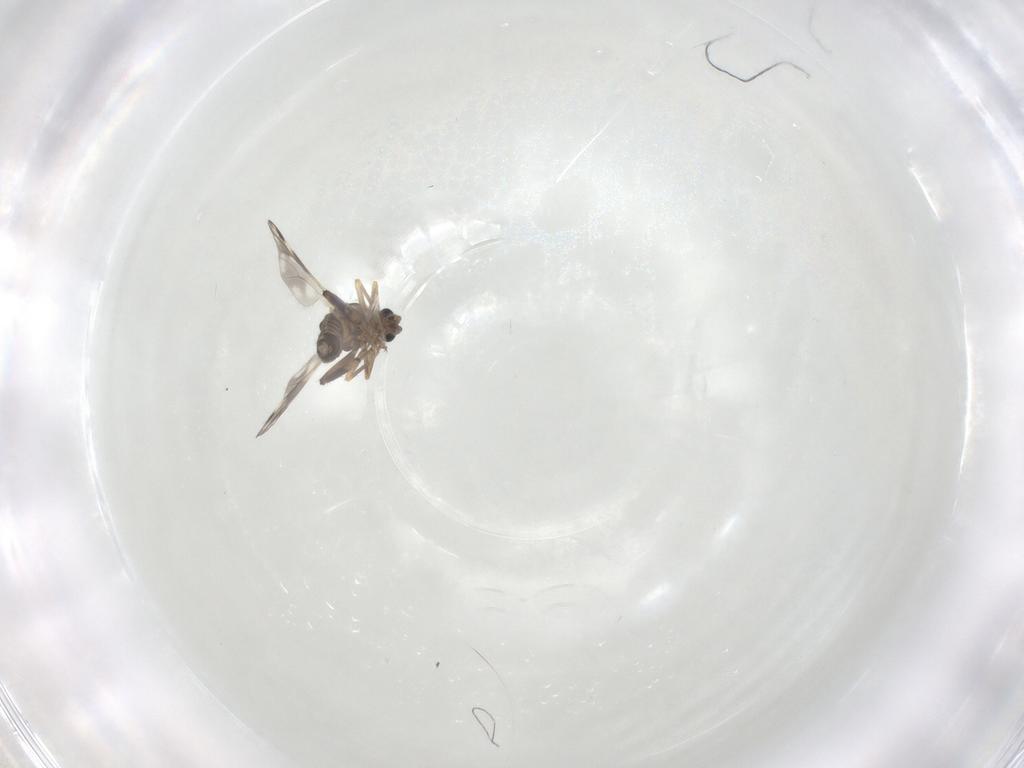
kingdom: Animalia
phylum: Arthropoda
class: Insecta
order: Diptera
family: Ceratopogonidae
